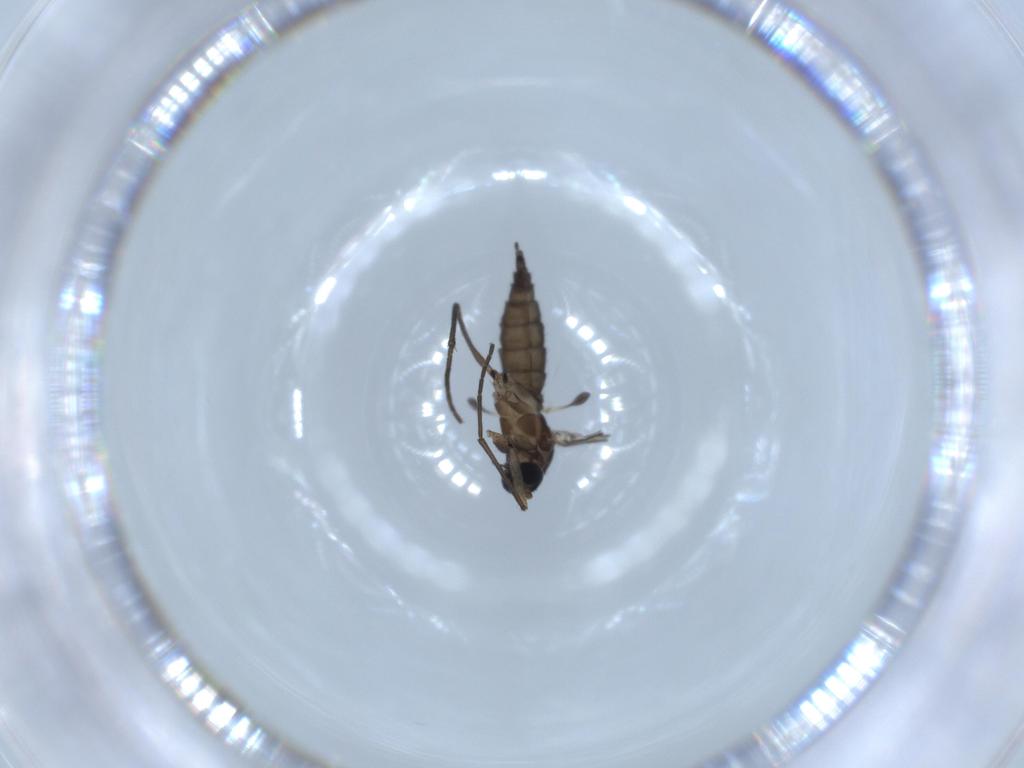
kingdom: Animalia
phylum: Arthropoda
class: Insecta
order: Diptera
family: Sciaridae
